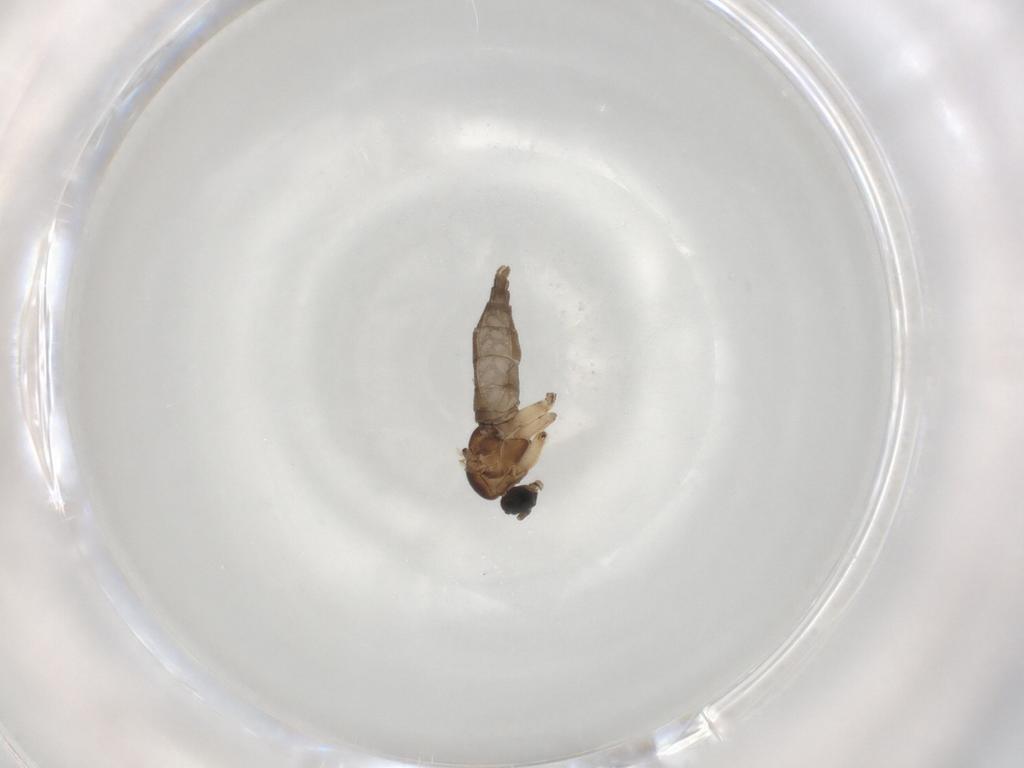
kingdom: Animalia
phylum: Arthropoda
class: Insecta
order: Diptera
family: Sciaridae
